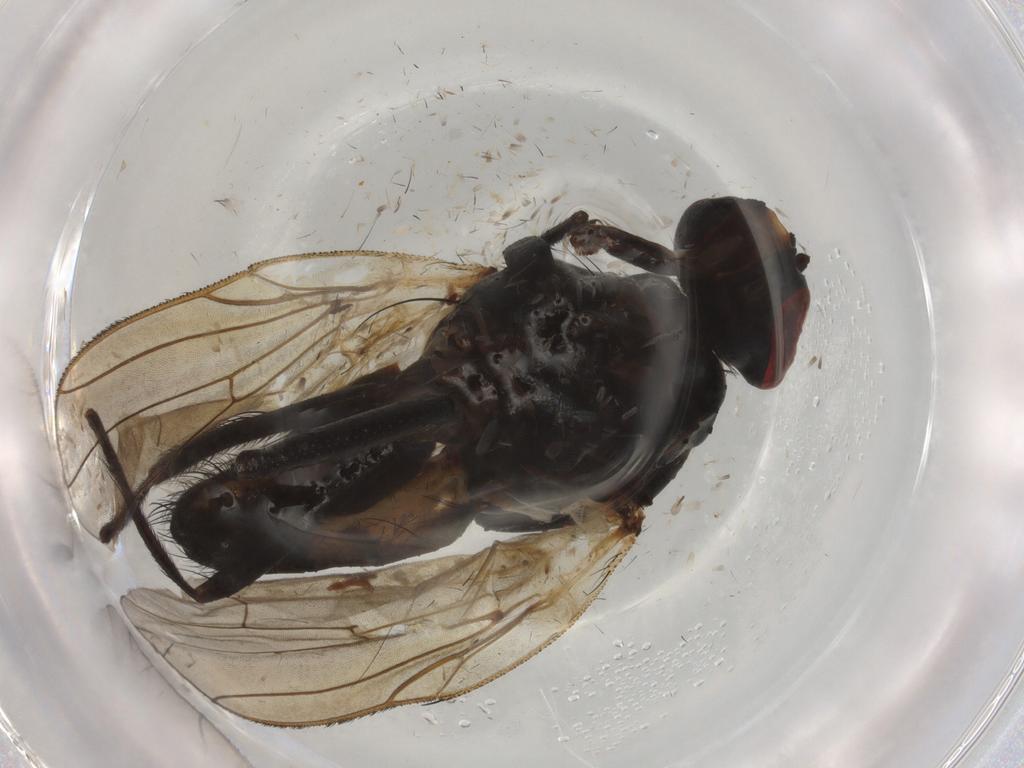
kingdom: Animalia
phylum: Arthropoda
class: Insecta
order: Diptera
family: Anthomyiidae
